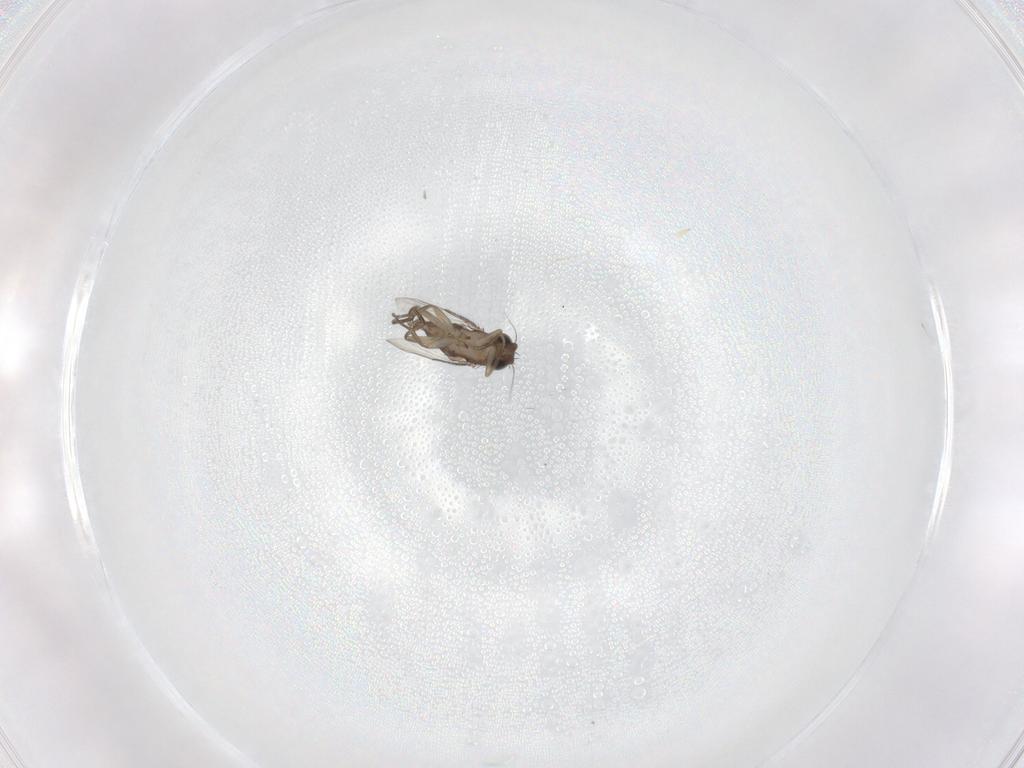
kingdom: Animalia
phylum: Arthropoda
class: Insecta
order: Diptera
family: Phoridae
